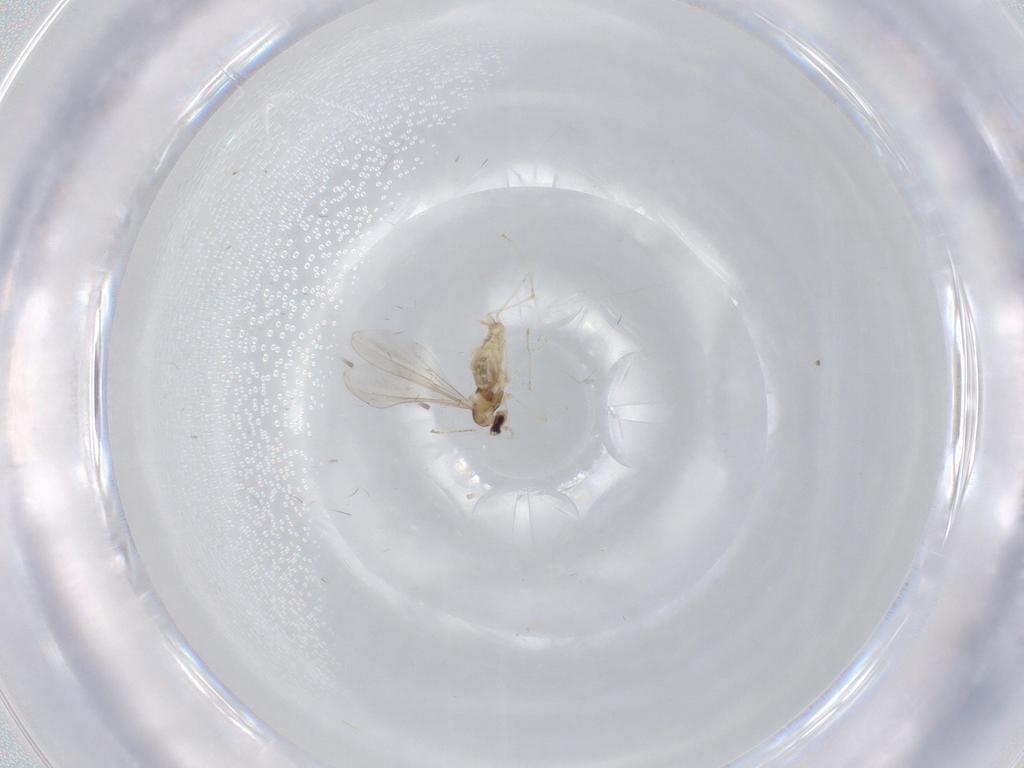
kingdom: Animalia
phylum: Arthropoda
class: Insecta
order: Diptera
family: Cecidomyiidae
